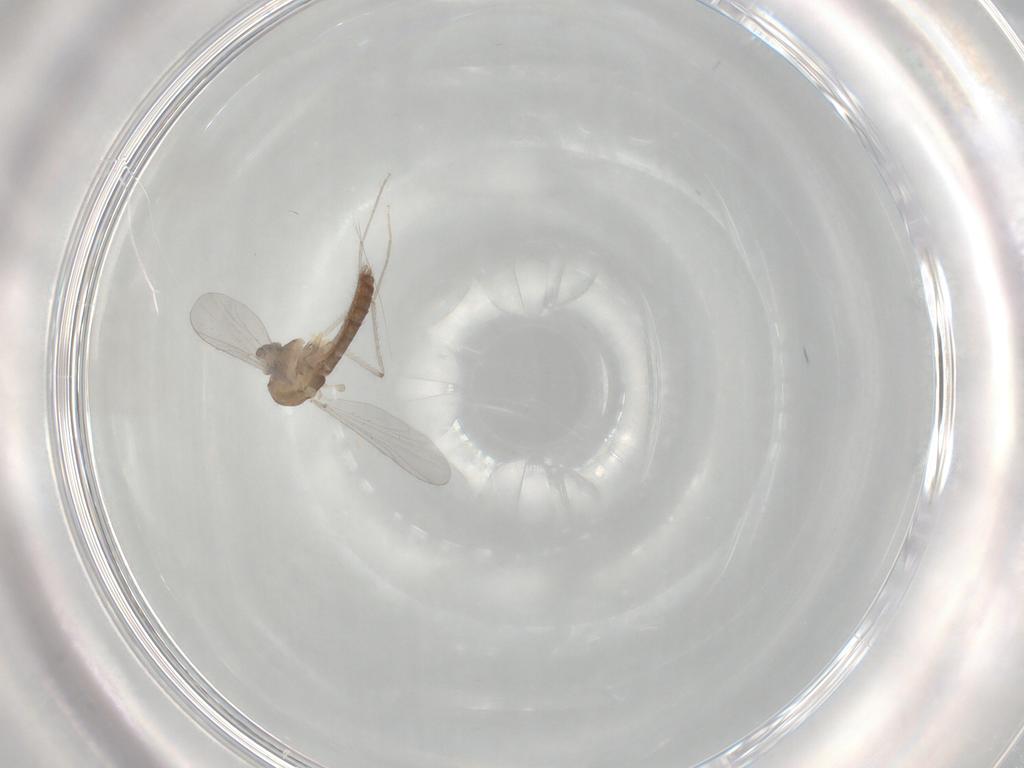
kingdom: Animalia
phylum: Arthropoda
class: Insecta
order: Diptera
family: Chironomidae
